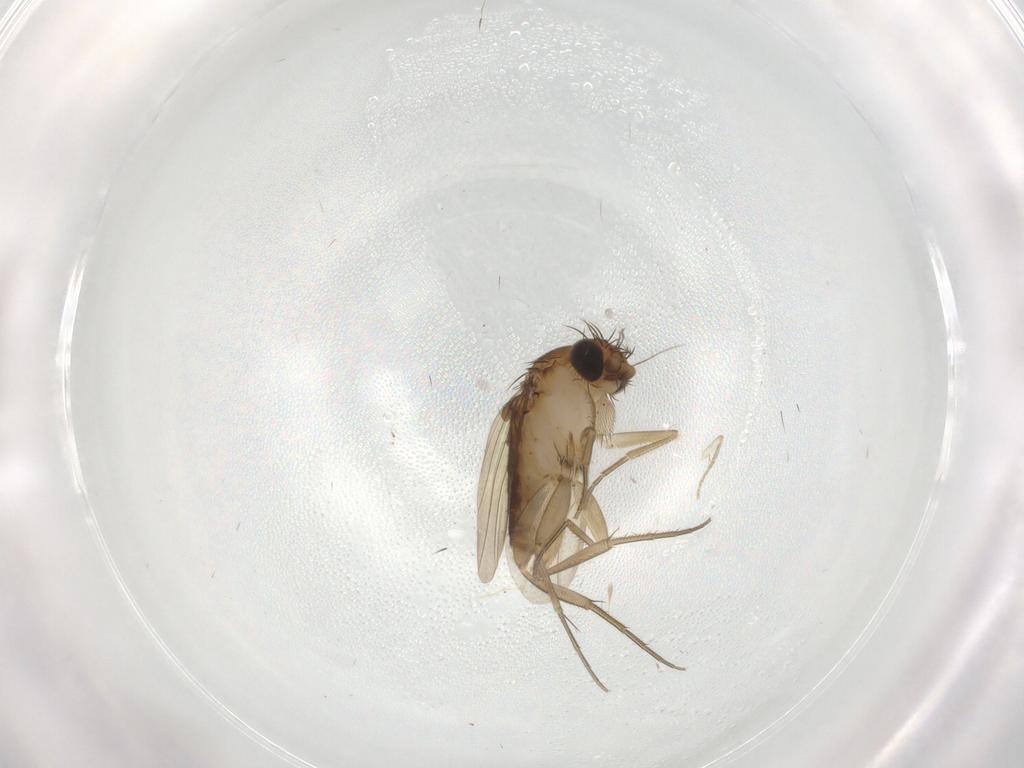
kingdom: Animalia
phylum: Arthropoda
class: Insecta
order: Diptera
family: Phoridae
